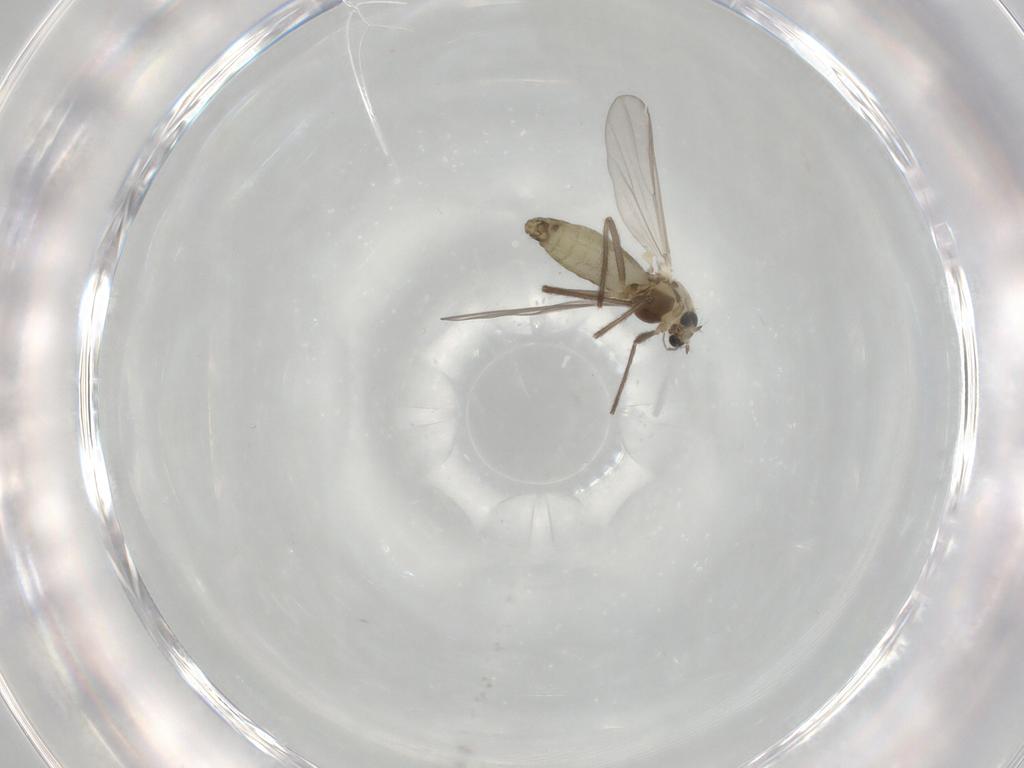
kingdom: Animalia
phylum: Arthropoda
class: Insecta
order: Diptera
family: Chironomidae
